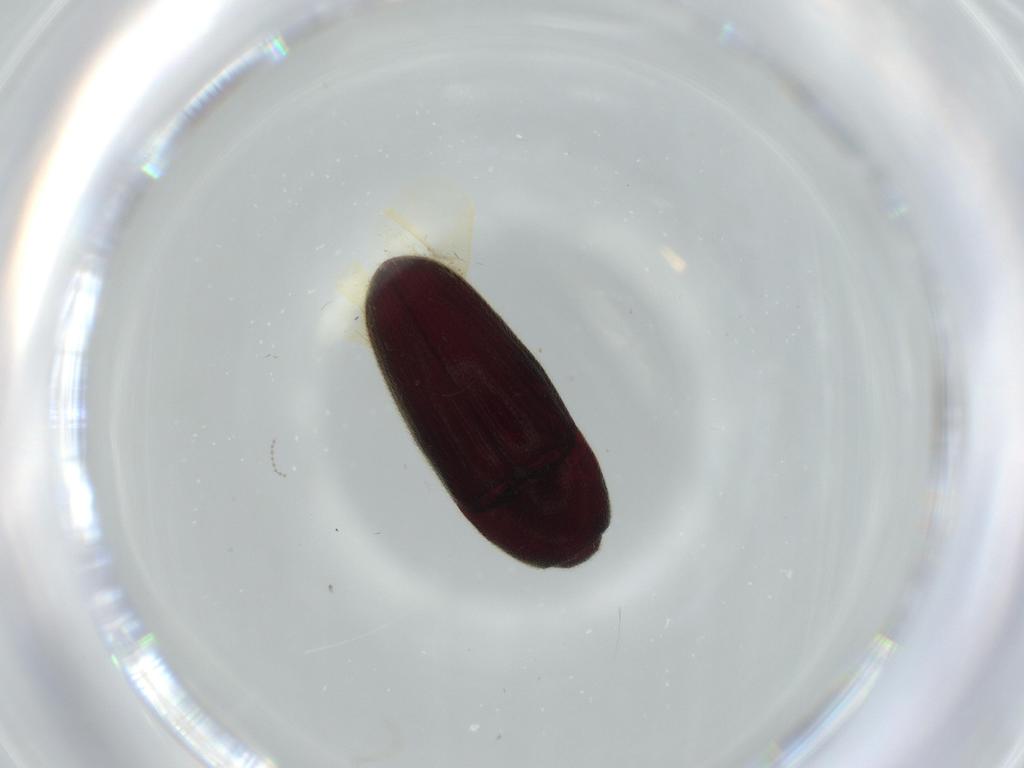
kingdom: Animalia
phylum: Arthropoda
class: Insecta
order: Coleoptera
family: Throscidae
